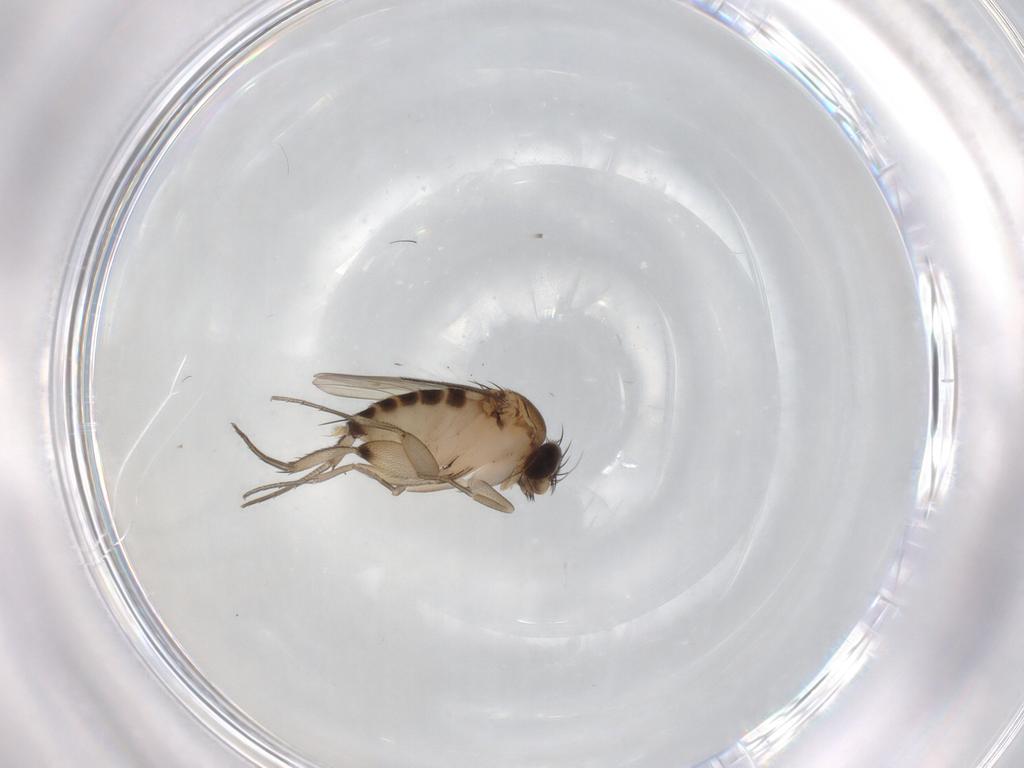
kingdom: Animalia
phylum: Arthropoda
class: Insecta
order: Diptera
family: Phoridae
